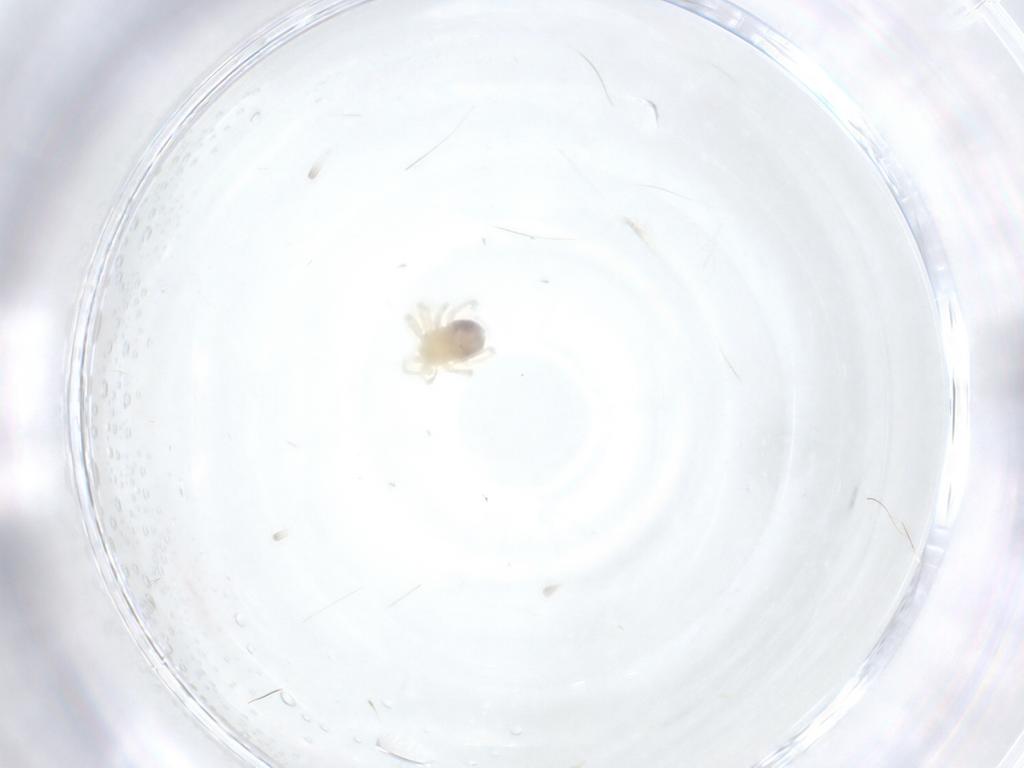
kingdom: Animalia
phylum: Arthropoda
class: Arachnida
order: Trombidiformes
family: Anystidae
